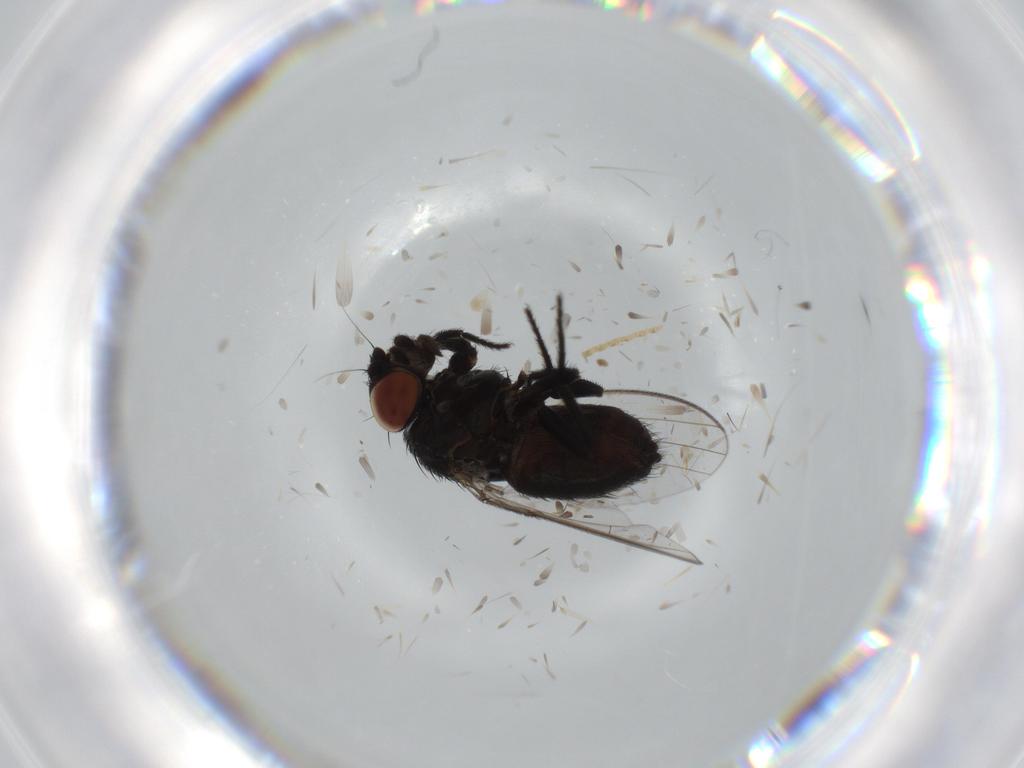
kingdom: Animalia
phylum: Arthropoda
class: Insecta
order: Diptera
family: Milichiidae
